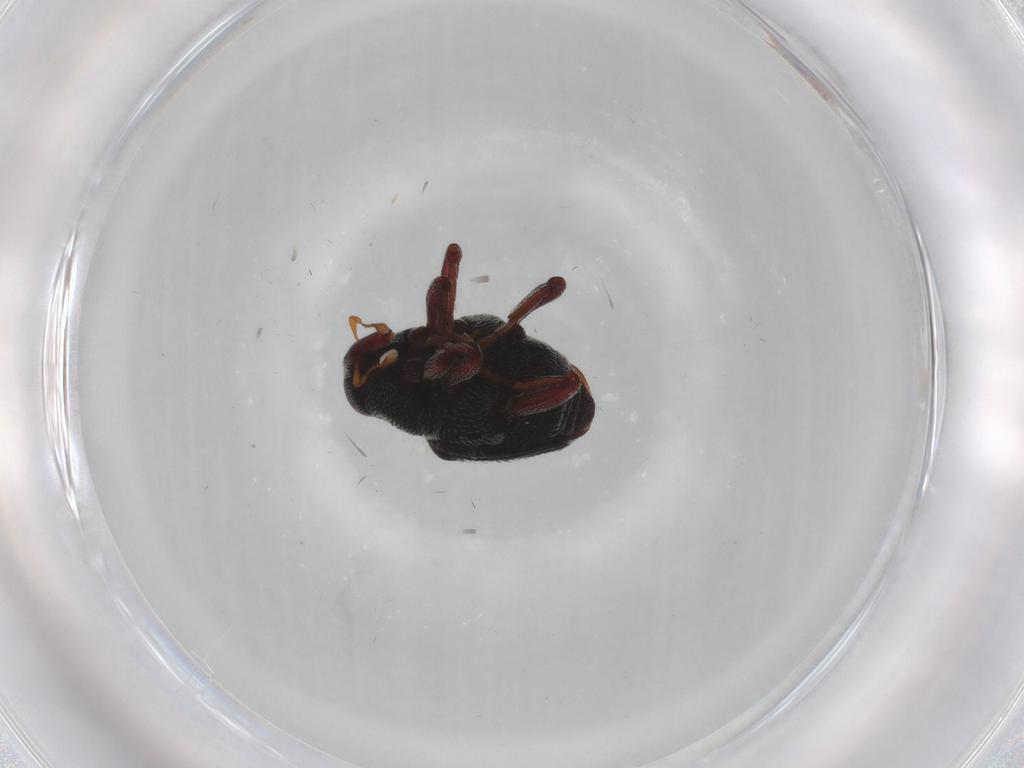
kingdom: Animalia
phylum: Arthropoda
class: Insecta
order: Coleoptera
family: Curculionidae
